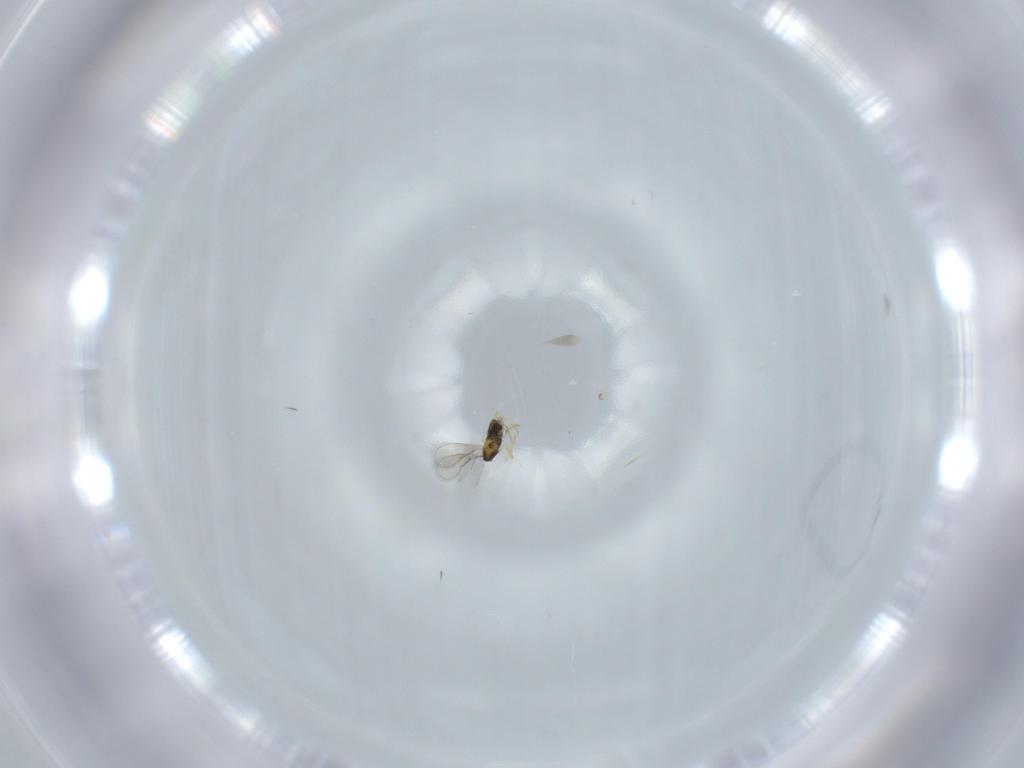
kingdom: Animalia
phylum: Arthropoda
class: Insecta
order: Hymenoptera
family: Aphelinidae
